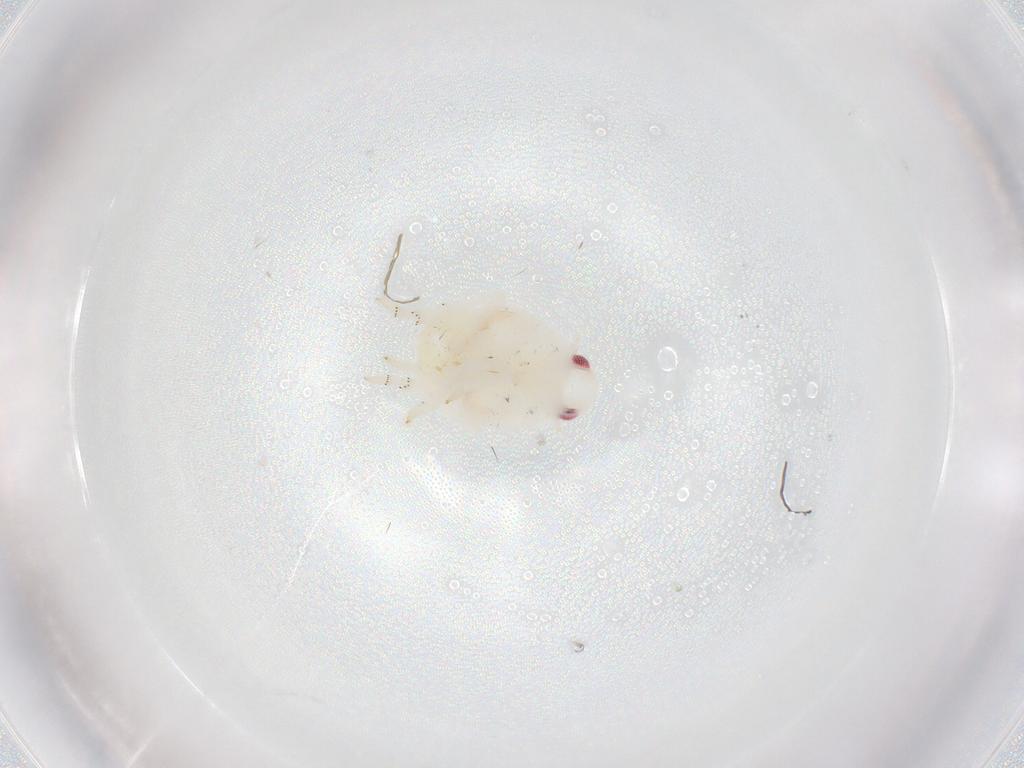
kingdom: Animalia
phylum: Arthropoda
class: Insecta
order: Hemiptera
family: Flatidae
